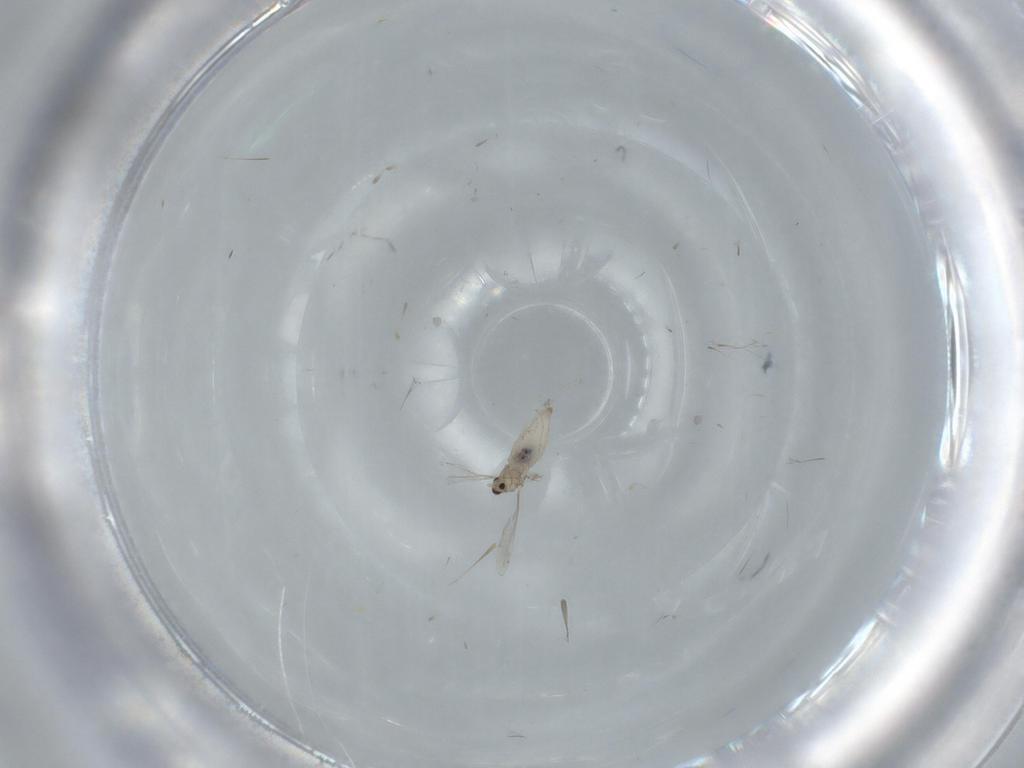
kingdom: Animalia
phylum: Arthropoda
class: Insecta
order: Diptera
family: Cecidomyiidae
